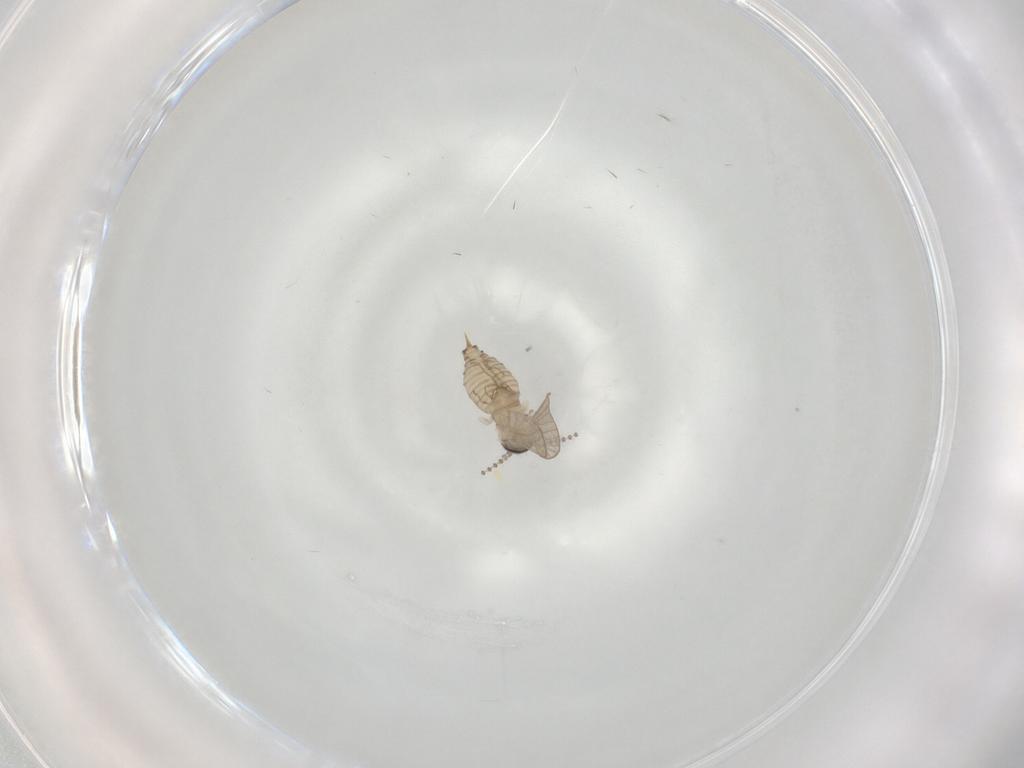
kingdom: Animalia
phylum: Arthropoda
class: Insecta
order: Diptera
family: Psychodidae
